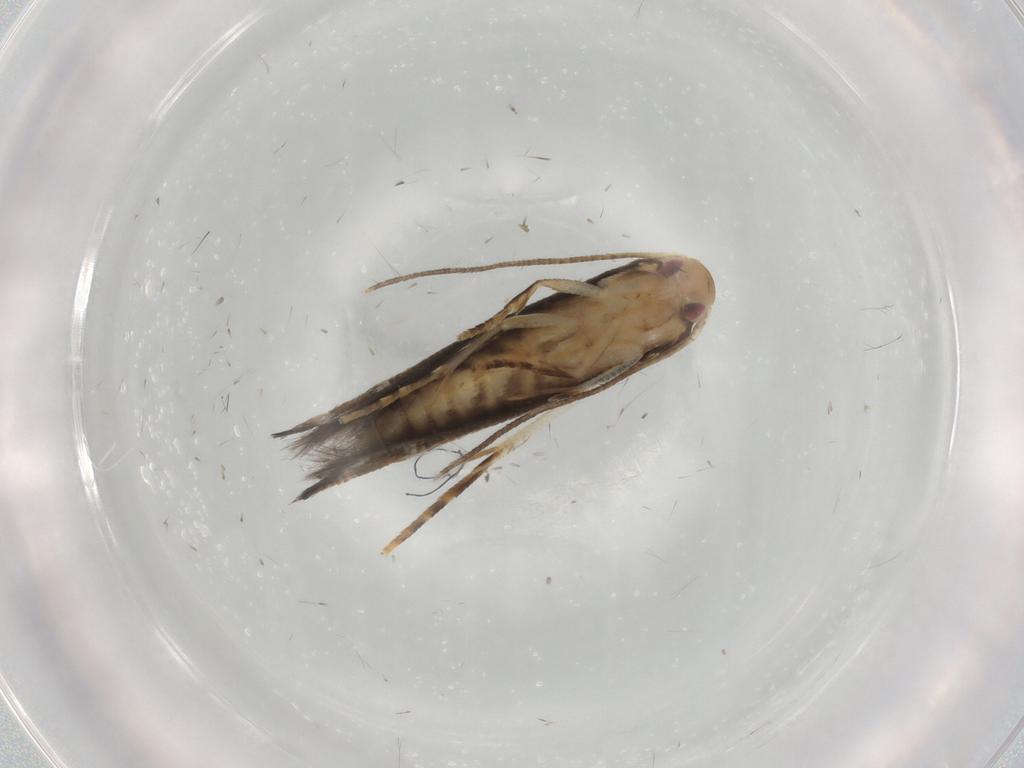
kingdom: Animalia
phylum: Arthropoda
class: Insecta
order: Lepidoptera
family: Momphidae
